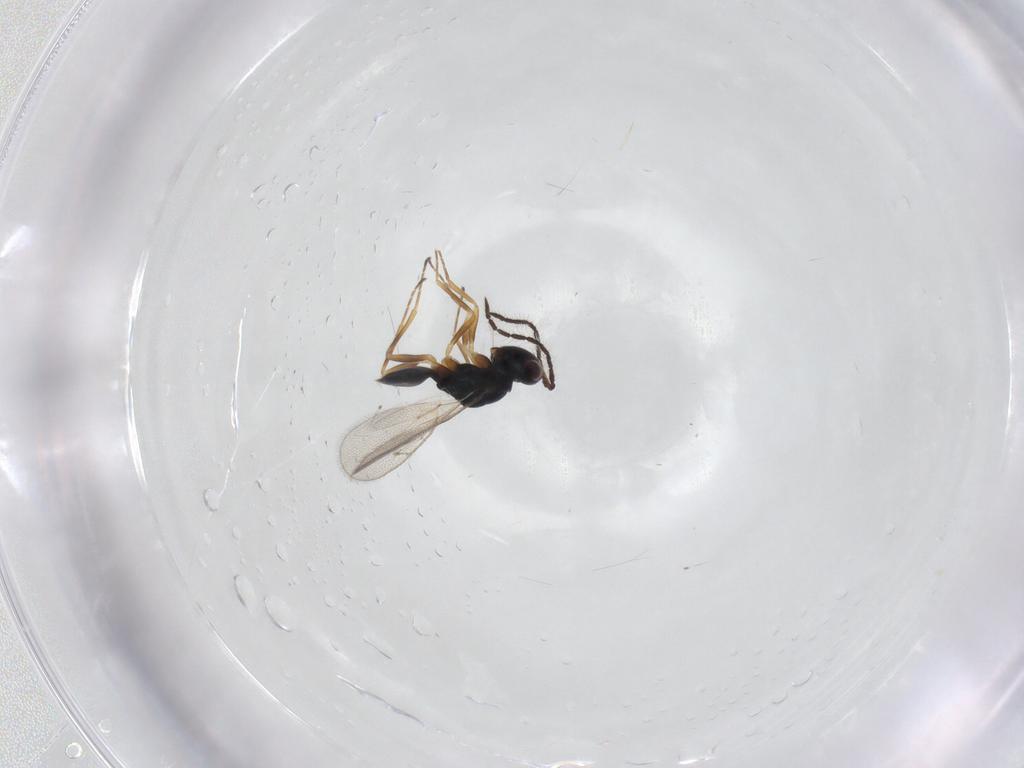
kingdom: Animalia
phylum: Arthropoda
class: Insecta
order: Hymenoptera
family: Pteromalidae
